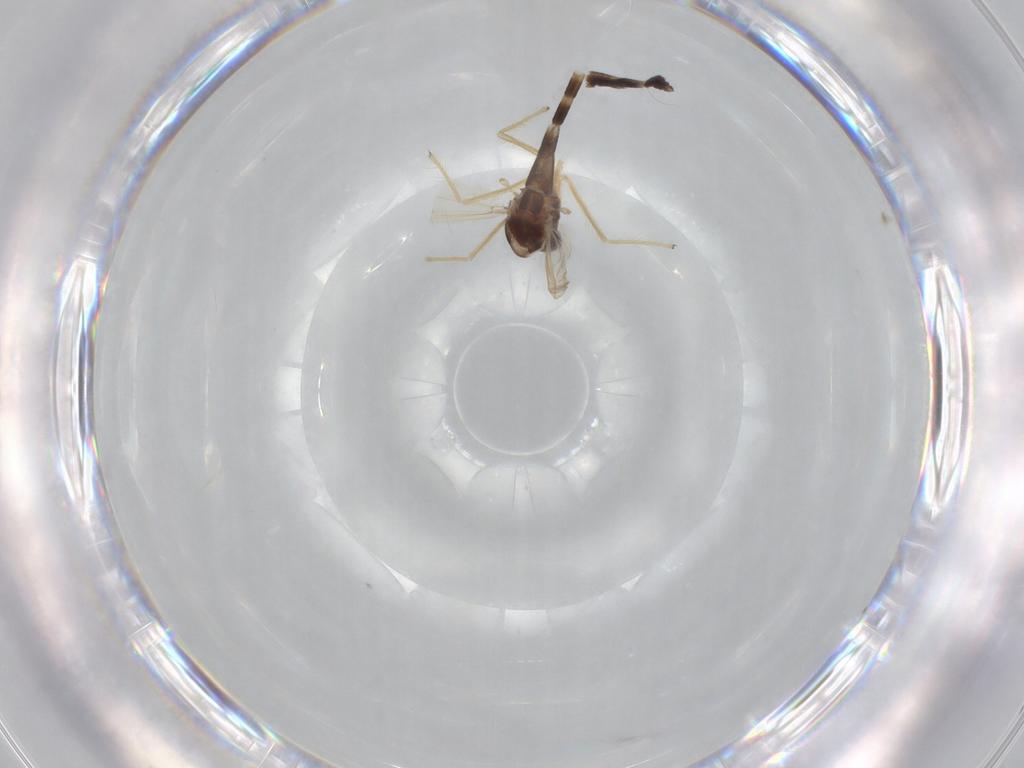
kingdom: Animalia
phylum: Arthropoda
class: Insecta
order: Diptera
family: Chironomidae
